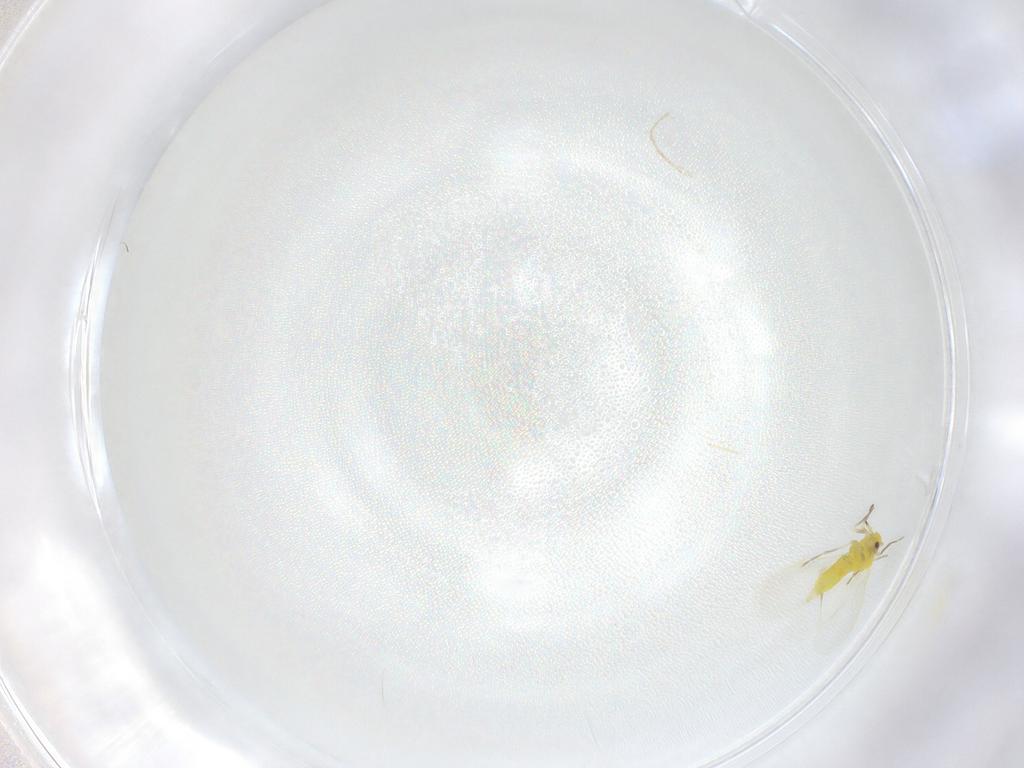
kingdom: Animalia
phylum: Arthropoda
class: Insecta
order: Hemiptera
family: Aleyrodidae
